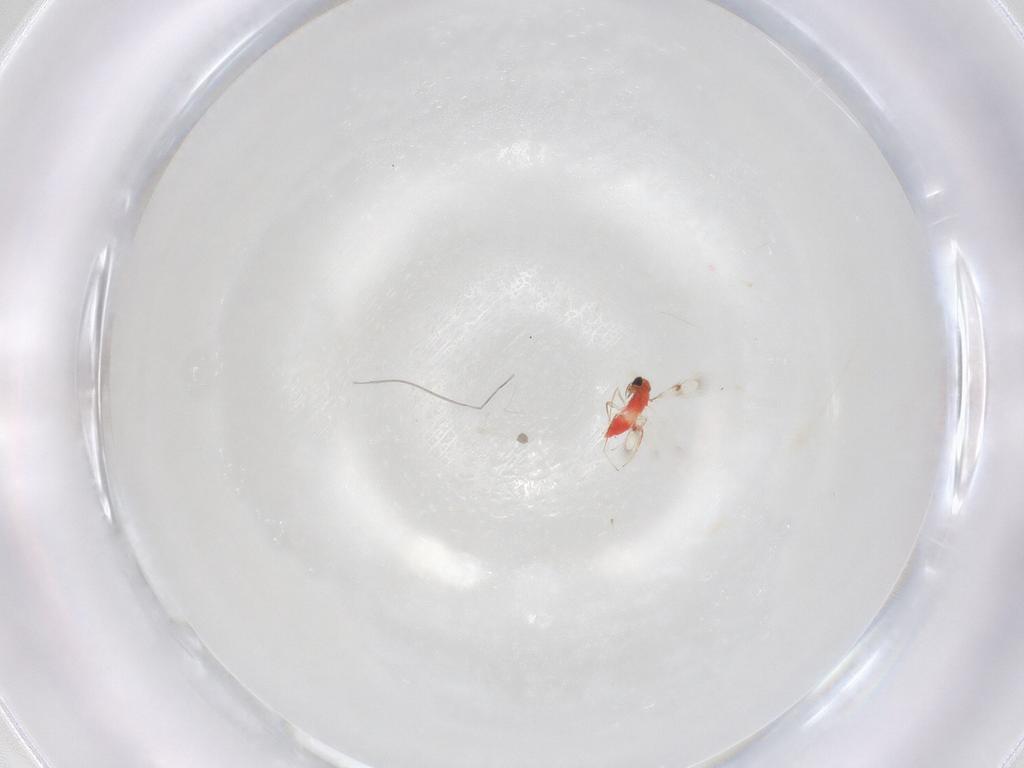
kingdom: Animalia
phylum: Arthropoda
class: Insecta
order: Hymenoptera
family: Trichogrammatidae
